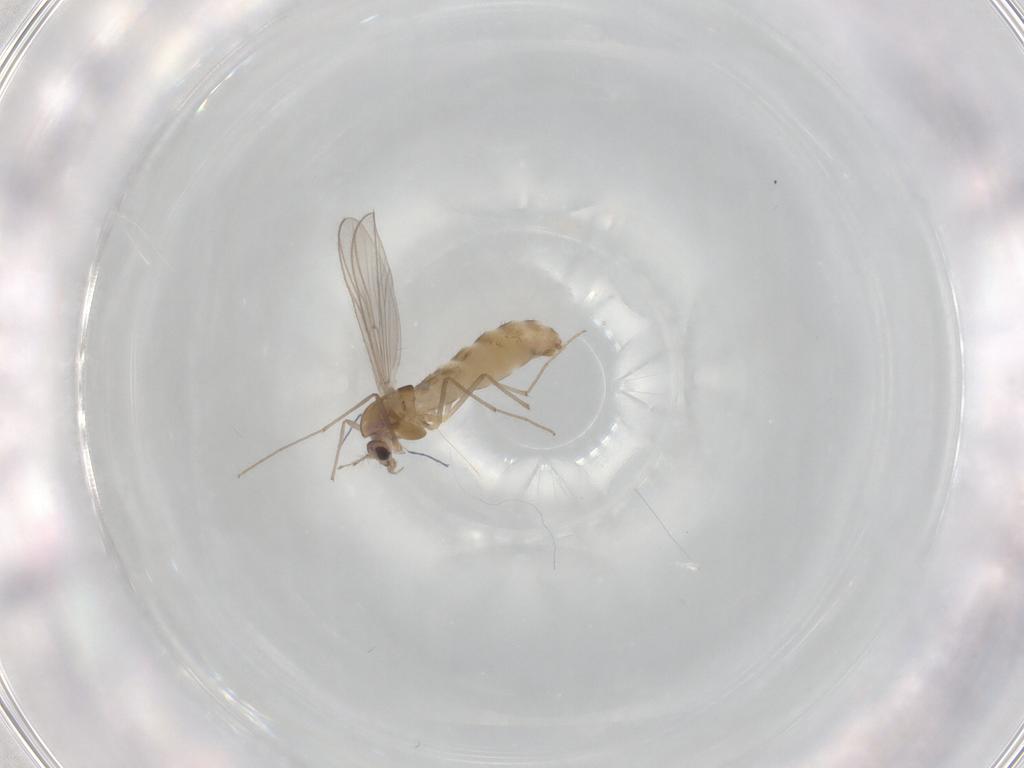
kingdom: Animalia
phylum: Arthropoda
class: Insecta
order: Diptera
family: Chironomidae
